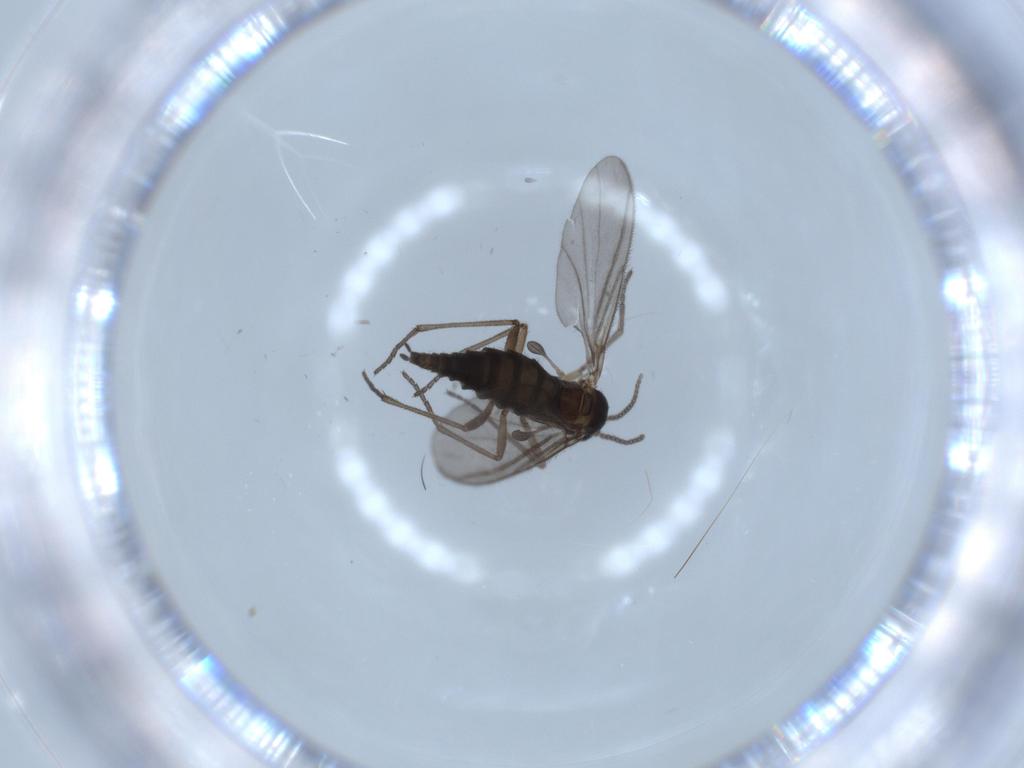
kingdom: Animalia
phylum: Arthropoda
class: Insecta
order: Diptera
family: Sciaridae
